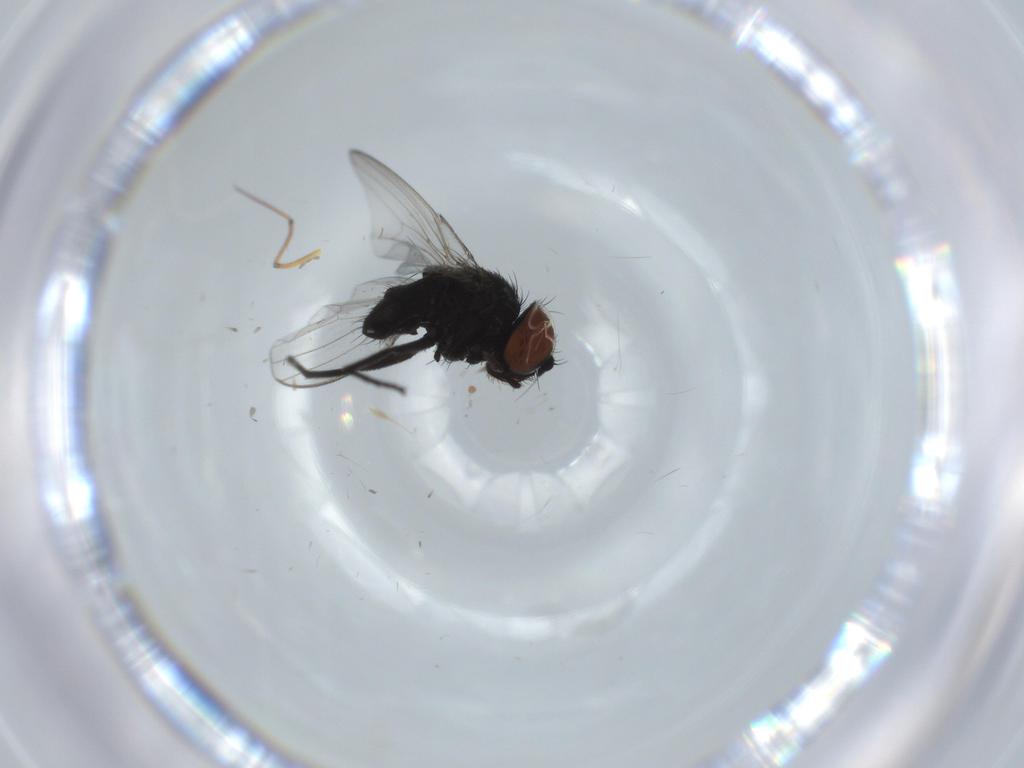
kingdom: Animalia
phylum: Arthropoda
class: Insecta
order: Diptera
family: Milichiidae
